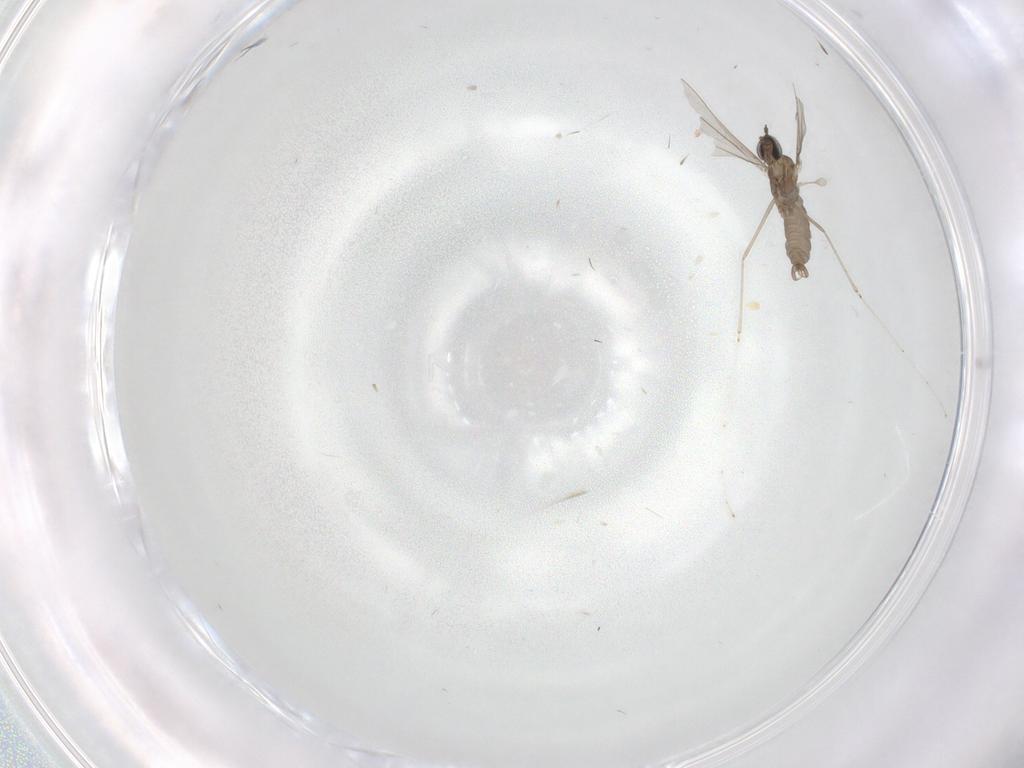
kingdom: Animalia
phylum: Arthropoda
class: Insecta
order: Diptera
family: Psychodidae
